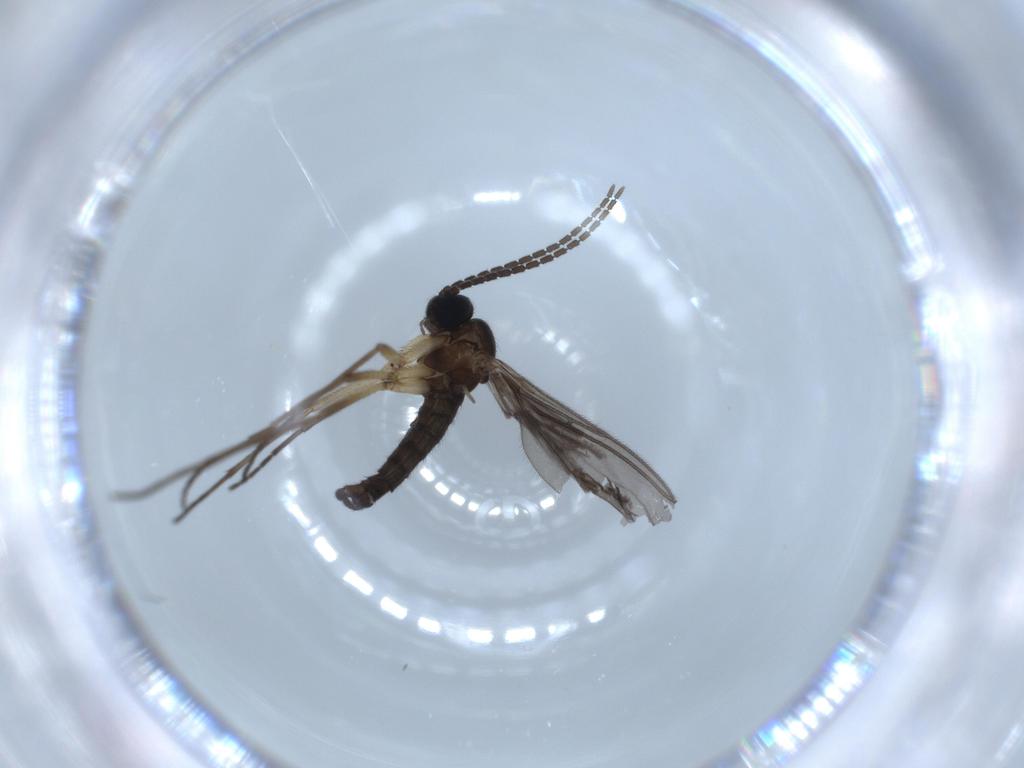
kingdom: Animalia
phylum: Arthropoda
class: Insecta
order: Diptera
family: Sciaridae
